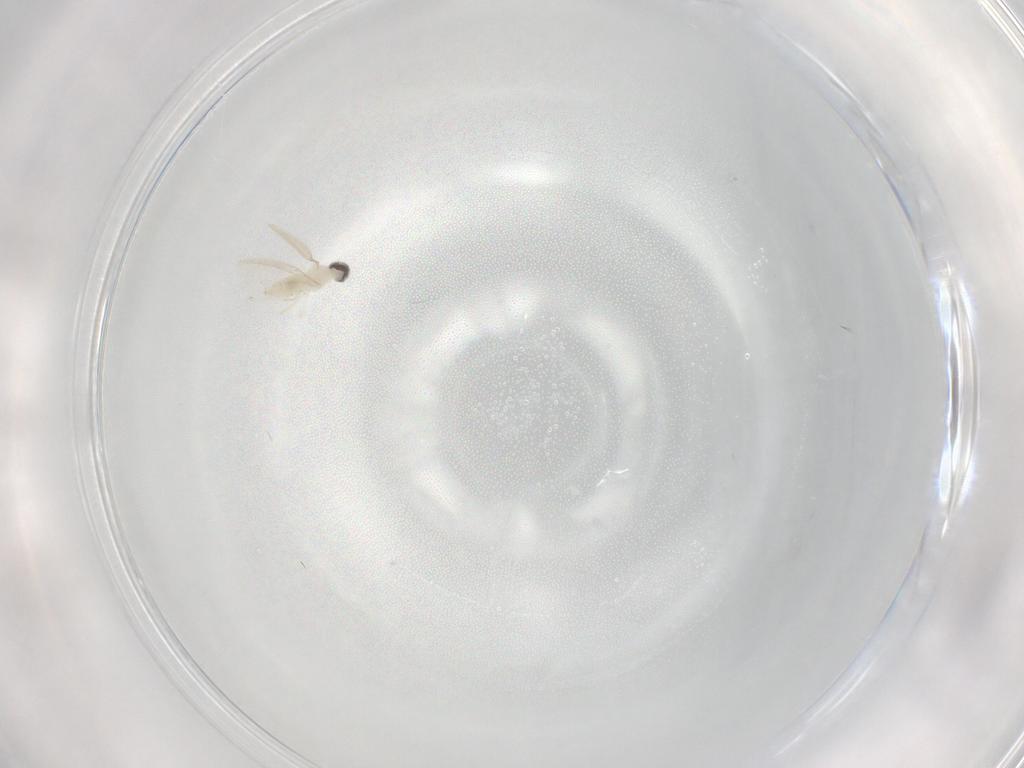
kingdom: Animalia
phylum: Arthropoda
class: Insecta
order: Diptera
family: Cecidomyiidae
